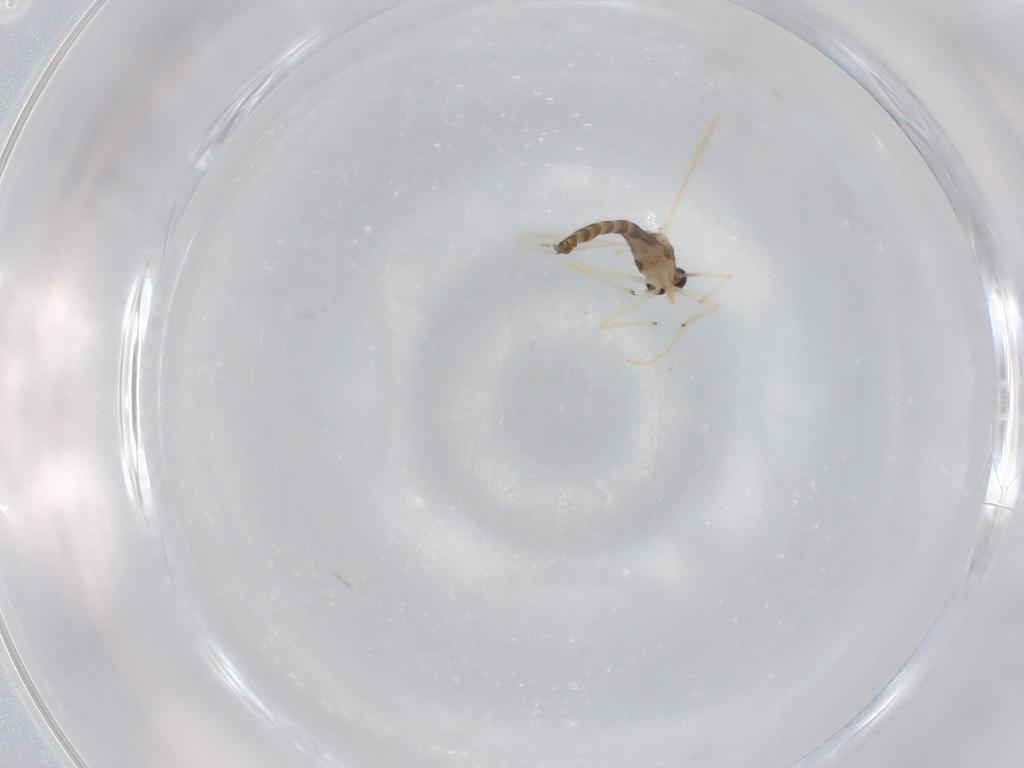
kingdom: Animalia
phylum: Arthropoda
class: Insecta
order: Diptera
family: Chironomidae
